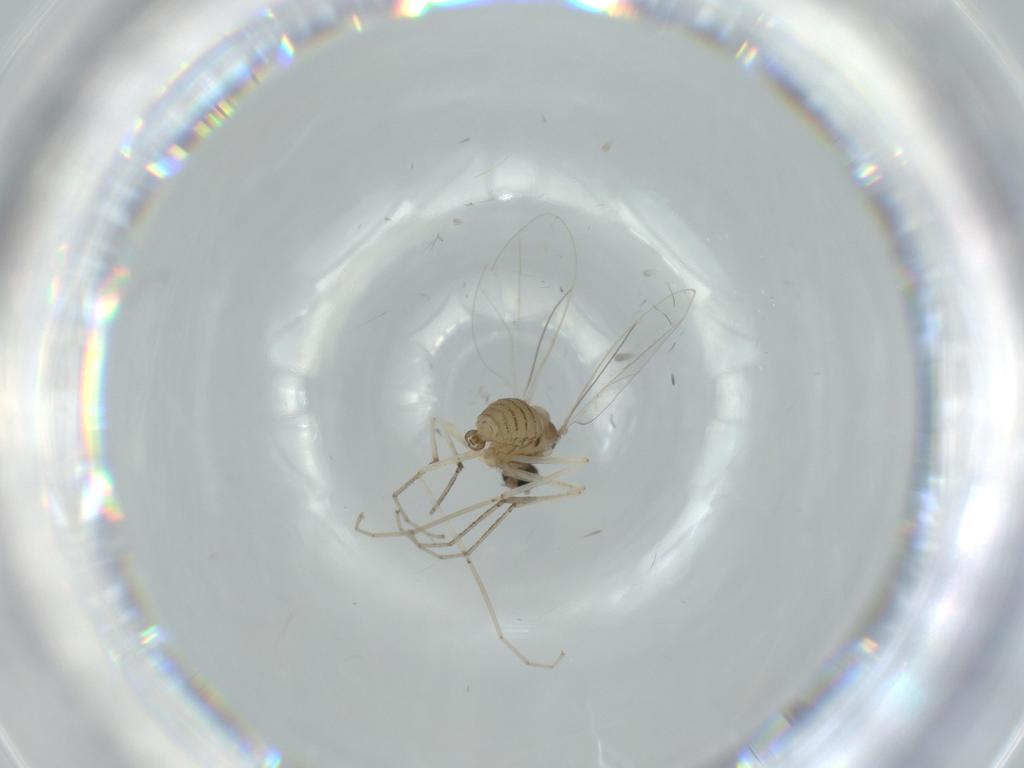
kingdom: Animalia
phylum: Arthropoda
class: Insecta
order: Diptera
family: Cecidomyiidae
